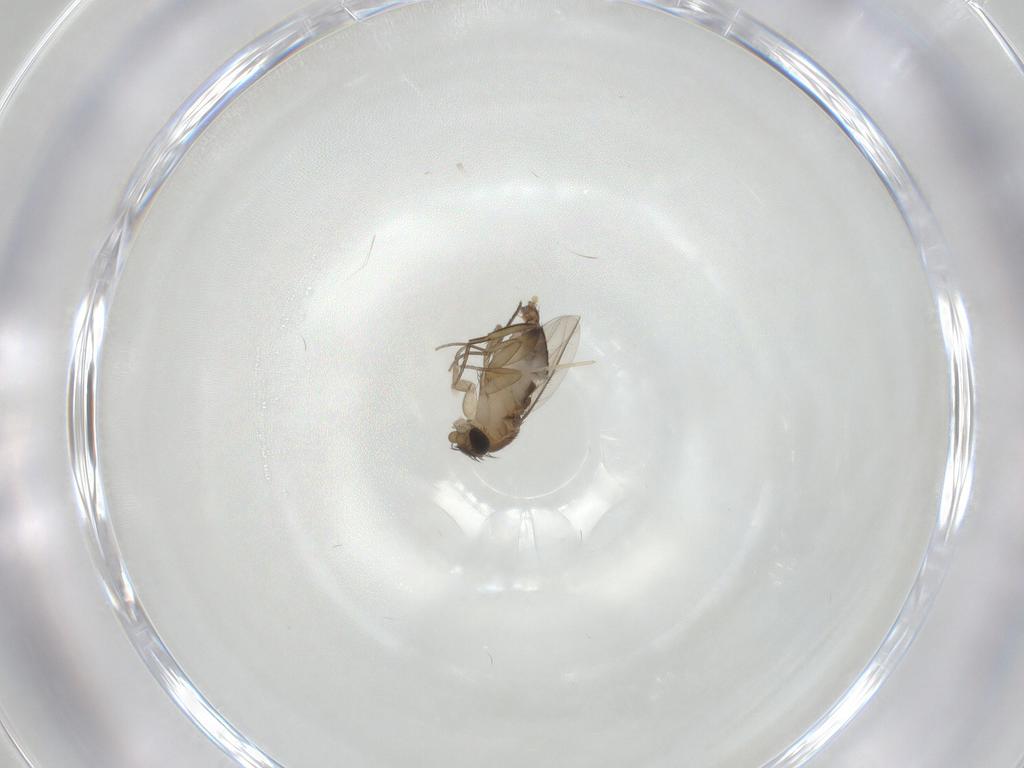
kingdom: Animalia
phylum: Arthropoda
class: Insecta
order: Diptera
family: Phoridae
